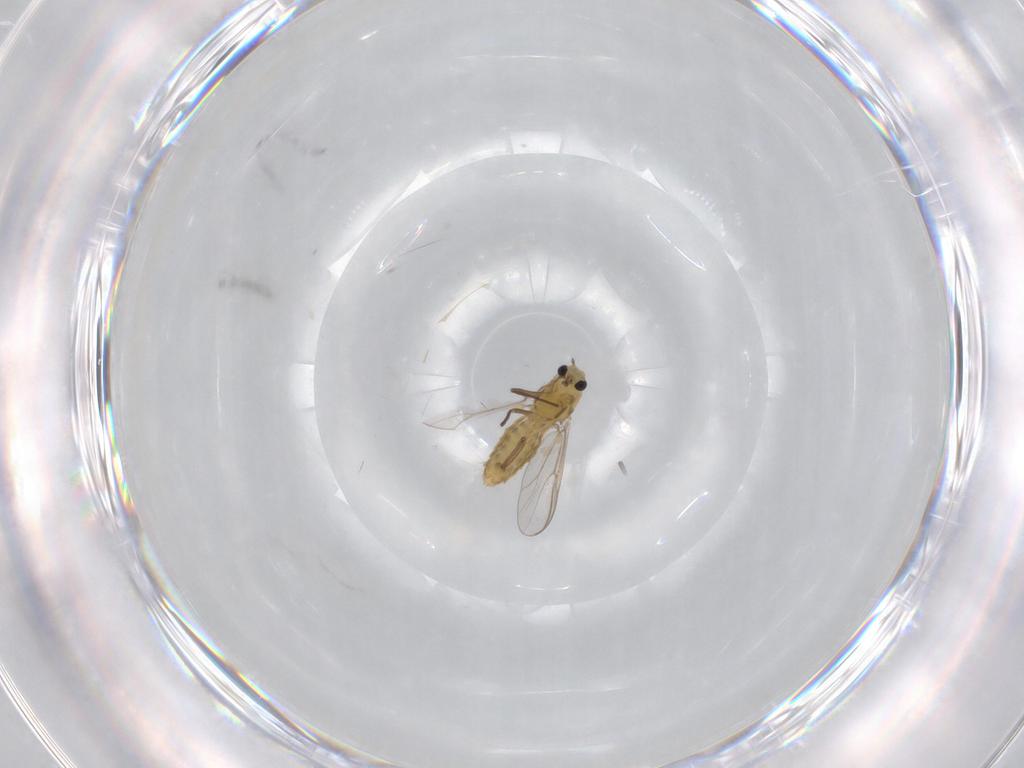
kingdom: Animalia
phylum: Arthropoda
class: Insecta
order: Diptera
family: Chironomidae
